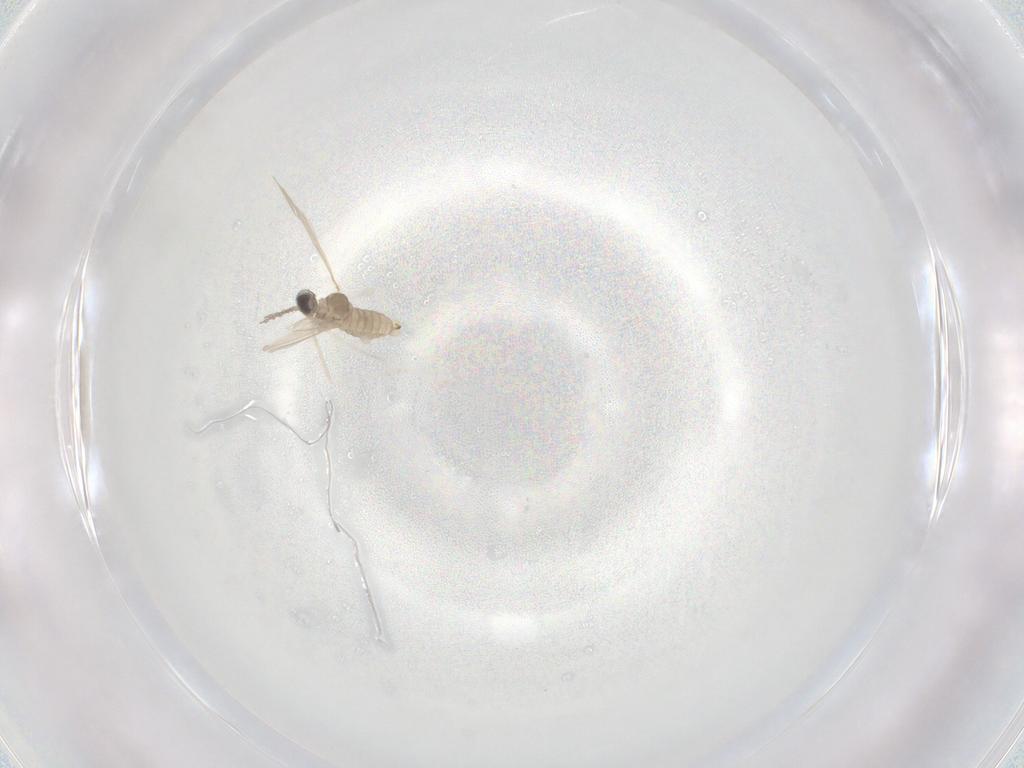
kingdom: Animalia
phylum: Arthropoda
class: Insecta
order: Diptera
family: Cecidomyiidae
